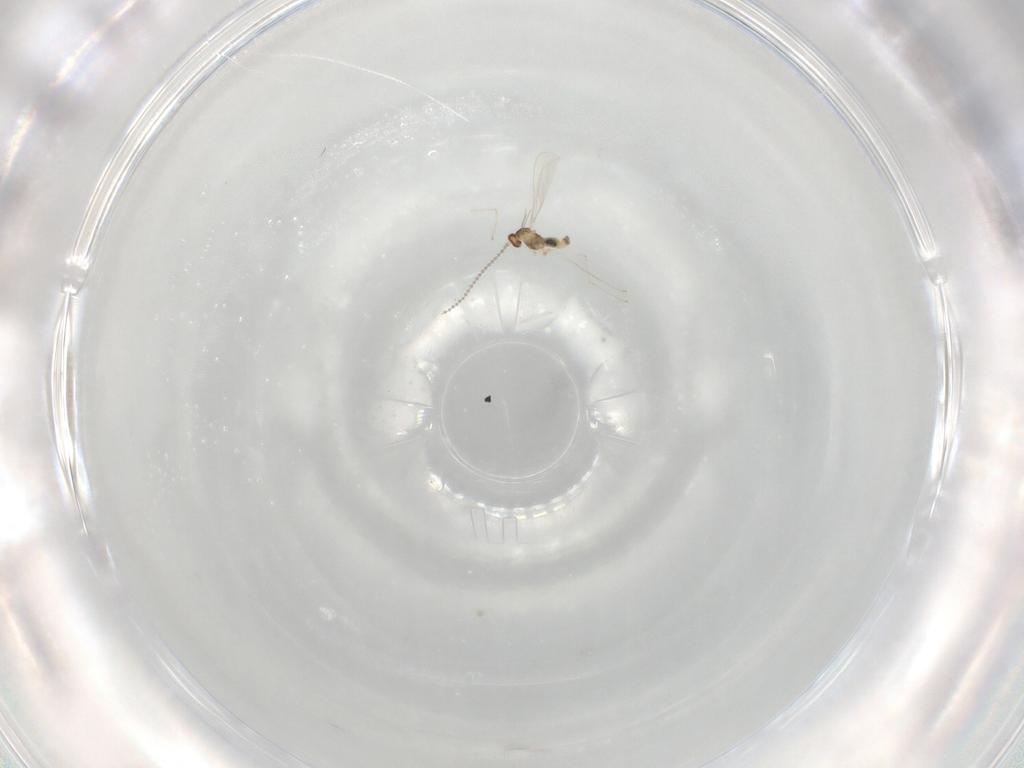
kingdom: Animalia
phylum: Arthropoda
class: Insecta
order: Diptera
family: Cecidomyiidae
